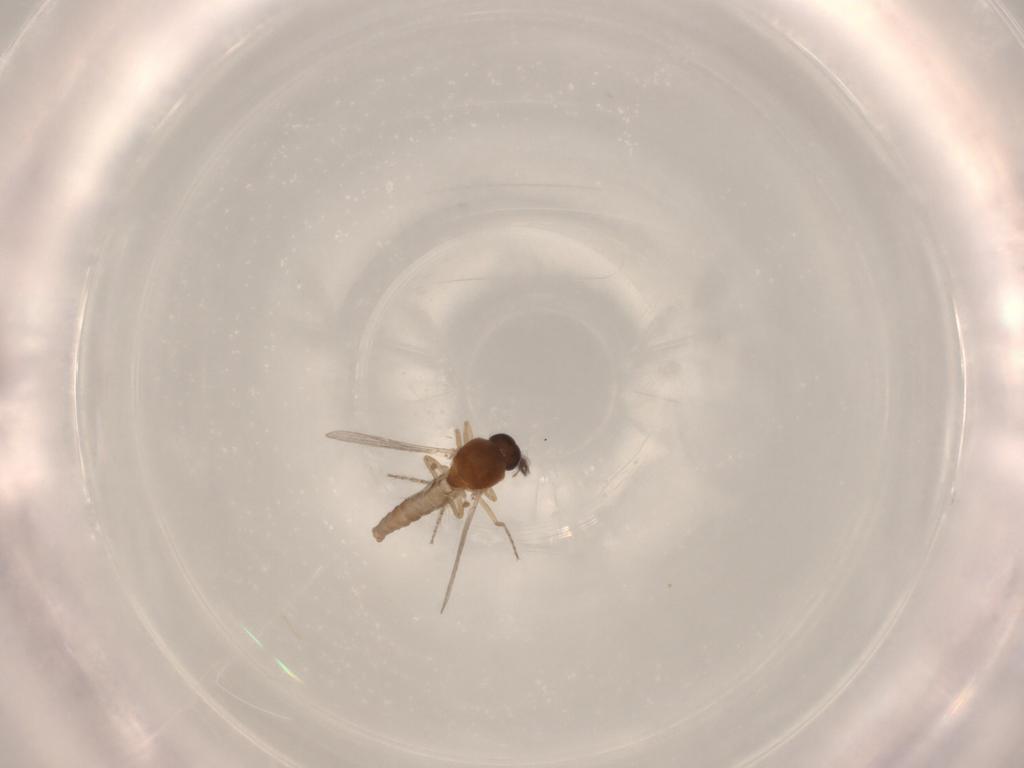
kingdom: Animalia
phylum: Arthropoda
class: Insecta
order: Diptera
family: Ceratopogonidae
